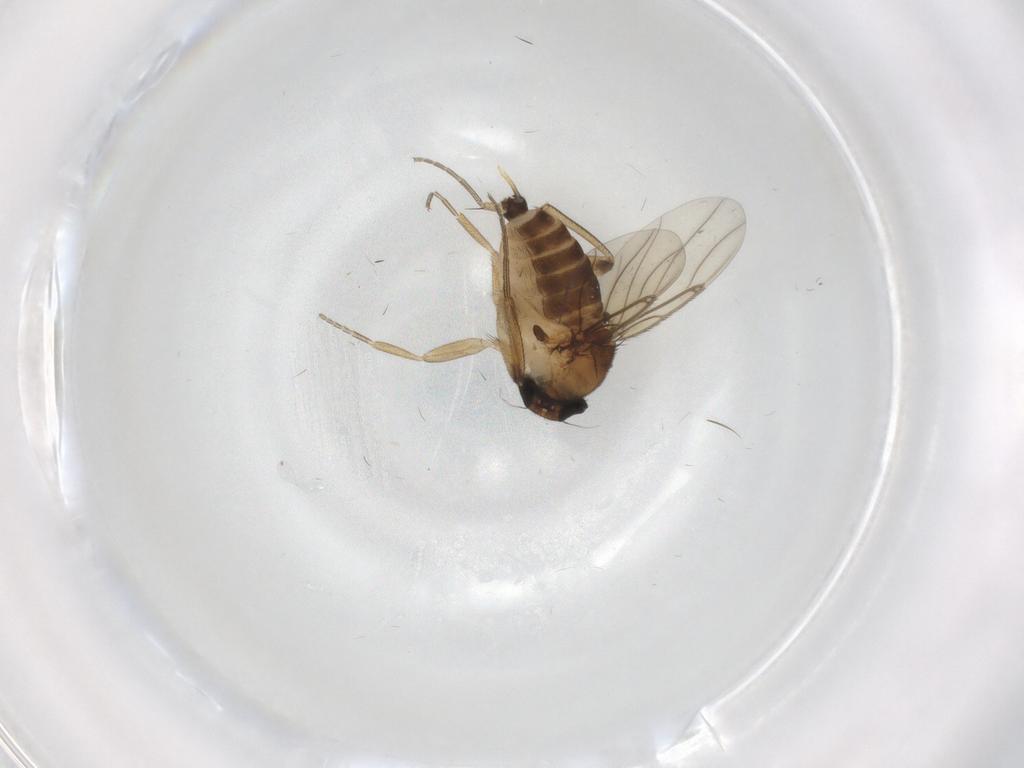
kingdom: Animalia
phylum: Arthropoda
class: Insecta
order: Diptera
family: Phoridae
